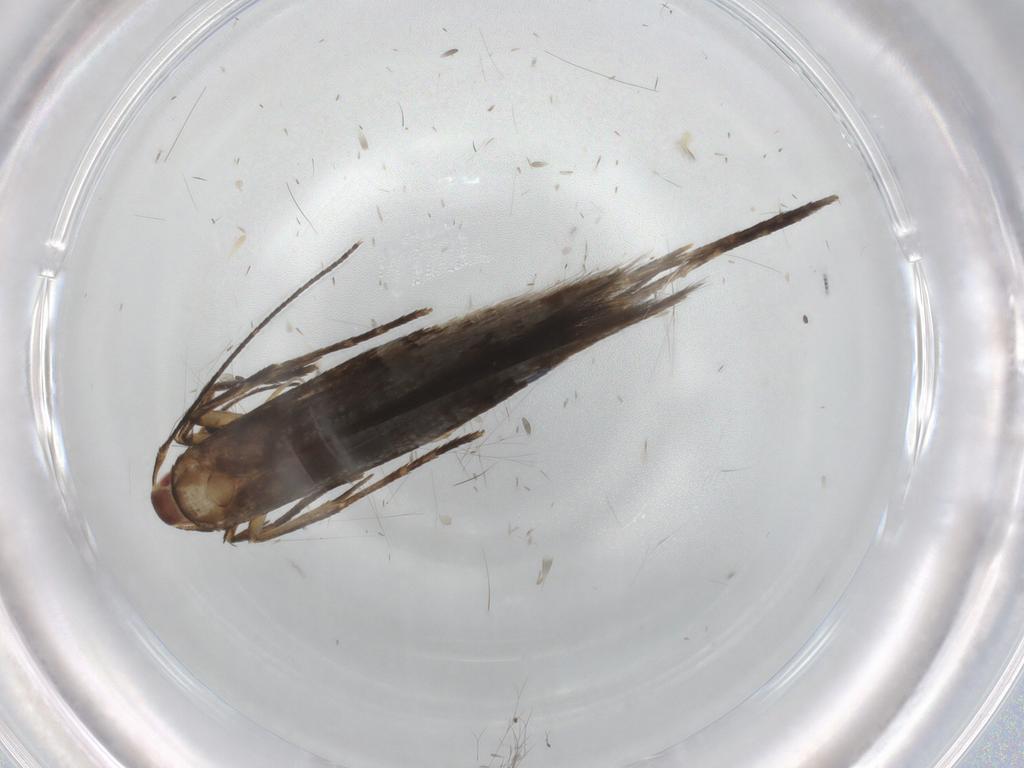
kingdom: Animalia
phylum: Arthropoda
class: Insecta
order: Lepidoptera
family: Cosmopterigidae
